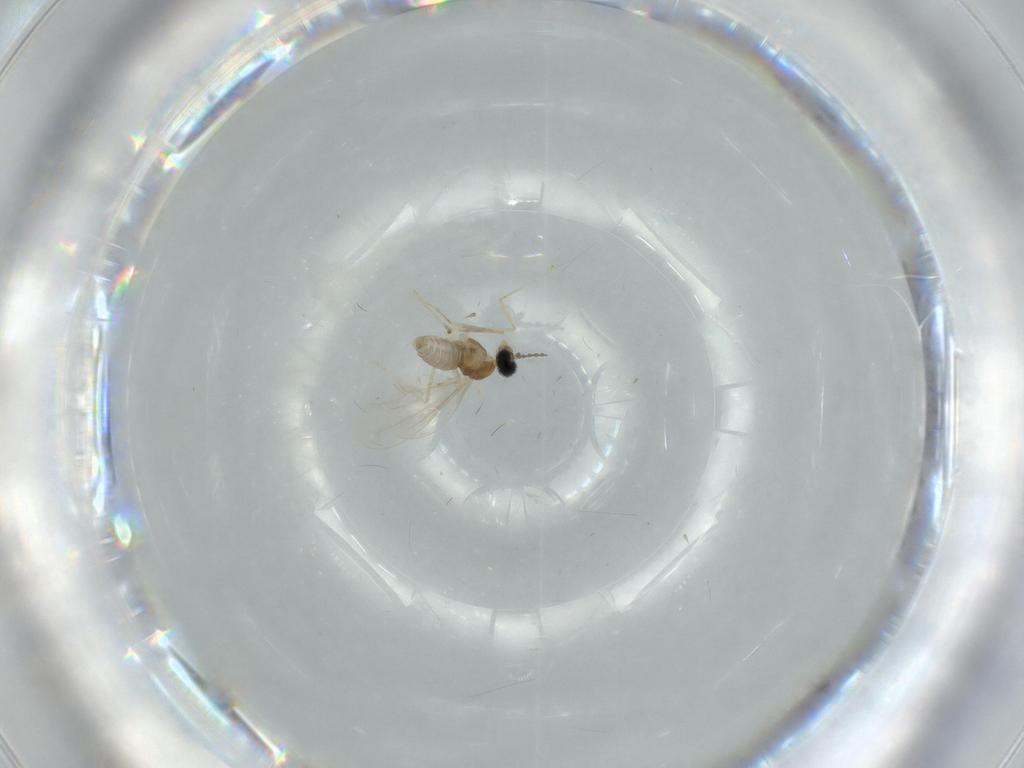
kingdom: Animalia
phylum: Arthropoda
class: Insecta
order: Diptera
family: Cecidomyiidae
